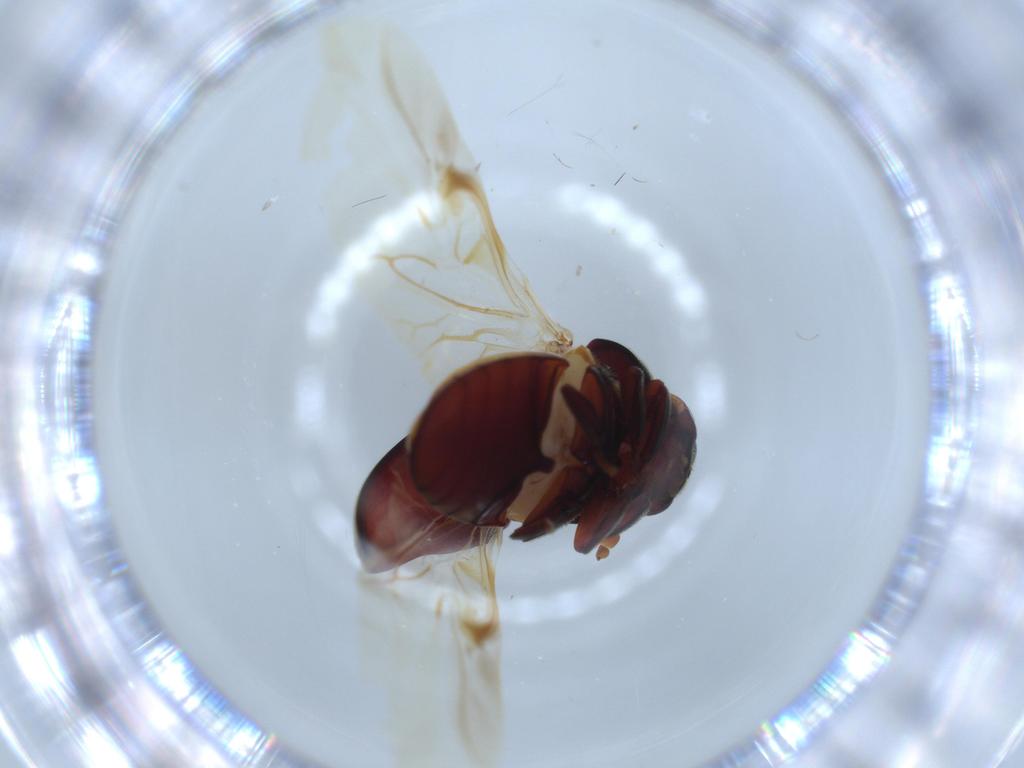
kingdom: Animalia
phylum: Arthropoda
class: Insecta
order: Coleoptera
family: Ptinidae
